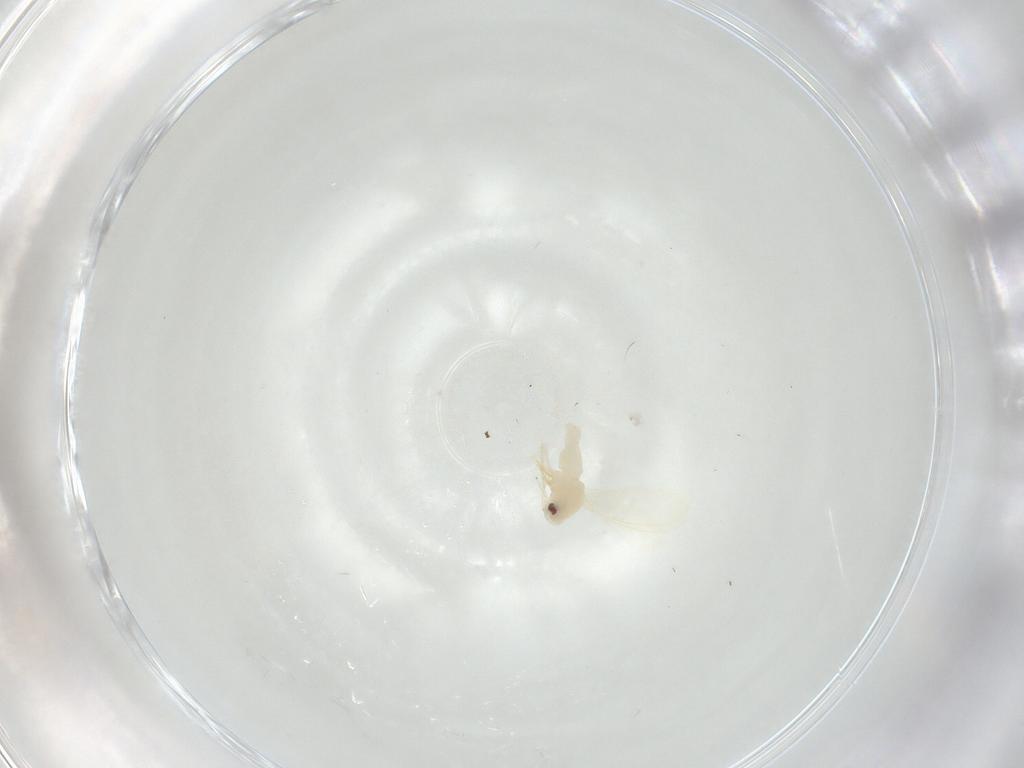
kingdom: Animalia
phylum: Arthropoda
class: Insecta
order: Hemiptera
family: Aleyrodidae
